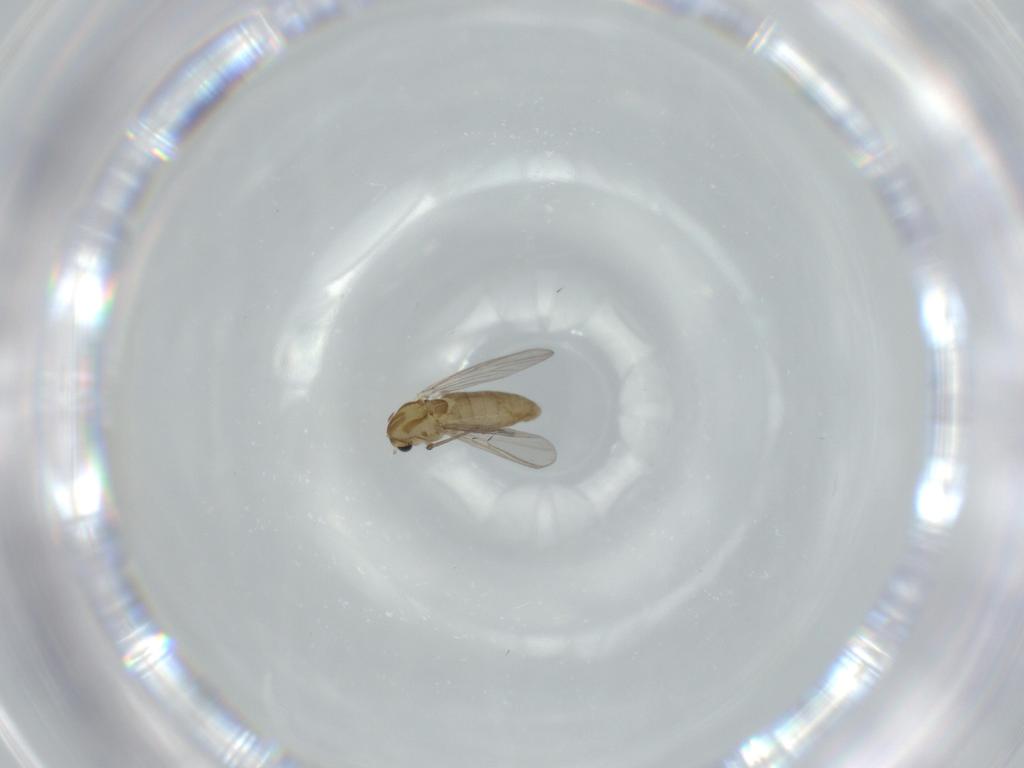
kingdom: Animalia
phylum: Arthropoda
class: Insecta
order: Diptera
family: Chironomidae
